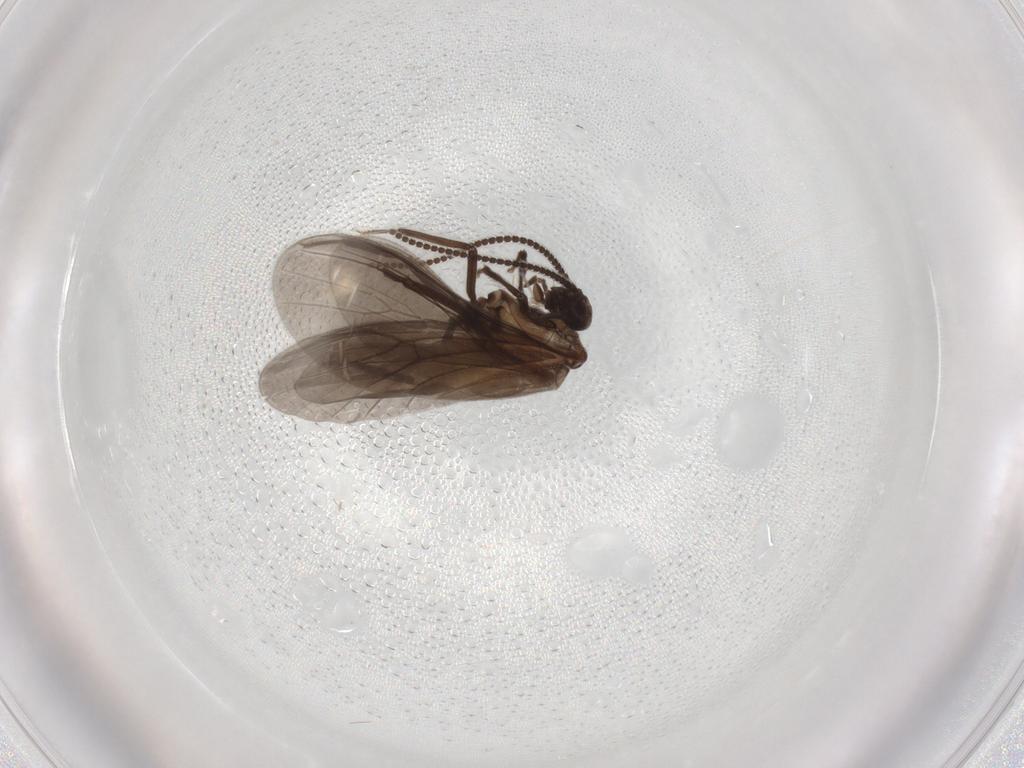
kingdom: Animalia
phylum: Arthropoda
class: Insecta
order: Neuroptera
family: Coniopterygidae
